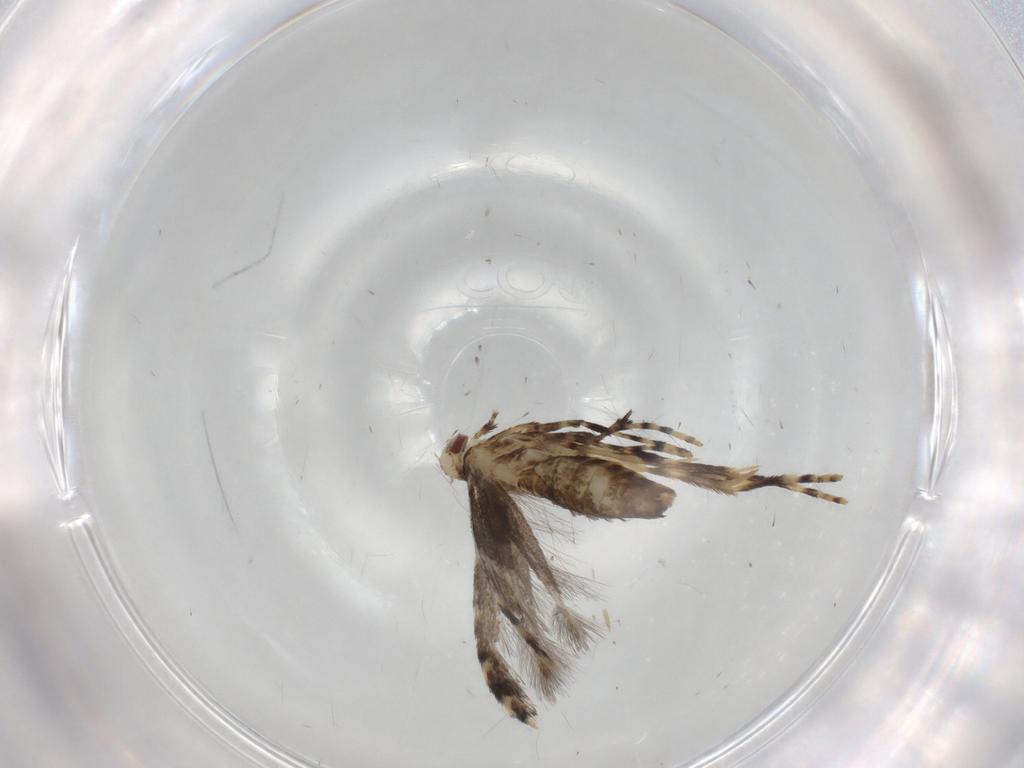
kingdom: Animalia
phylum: Arthropoda
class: Insecta
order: Lepidoptera
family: Gracillariidae
